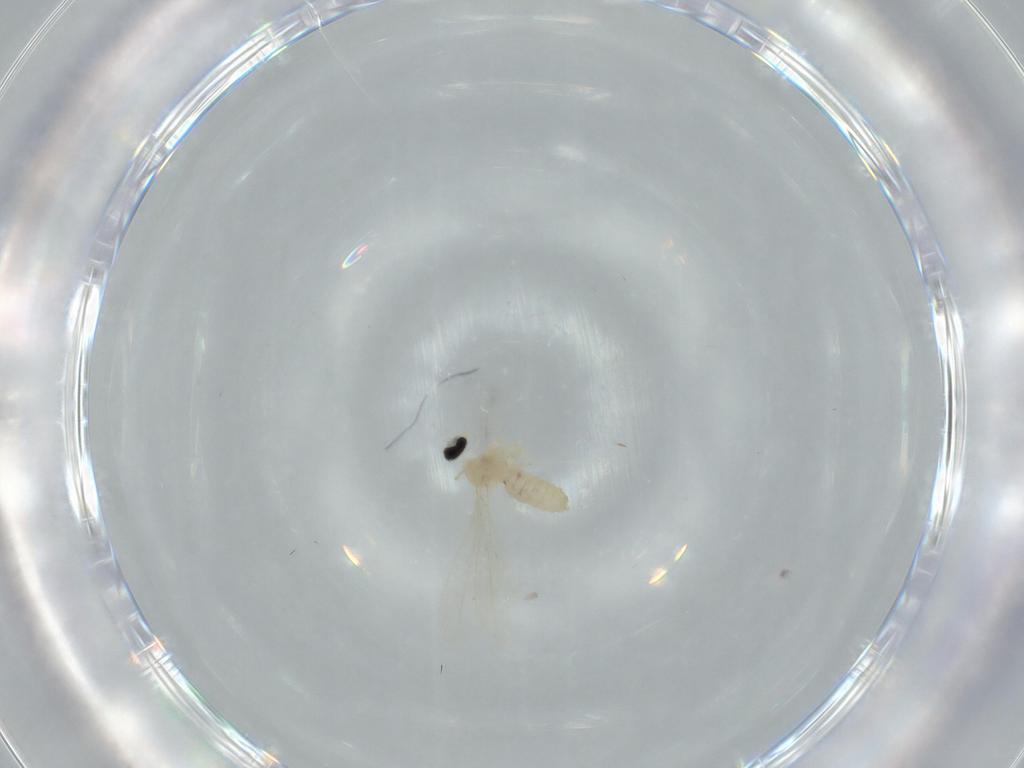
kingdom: Animalia
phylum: Arthropoda
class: Insecta
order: Diptera
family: Cecidomyiidae
